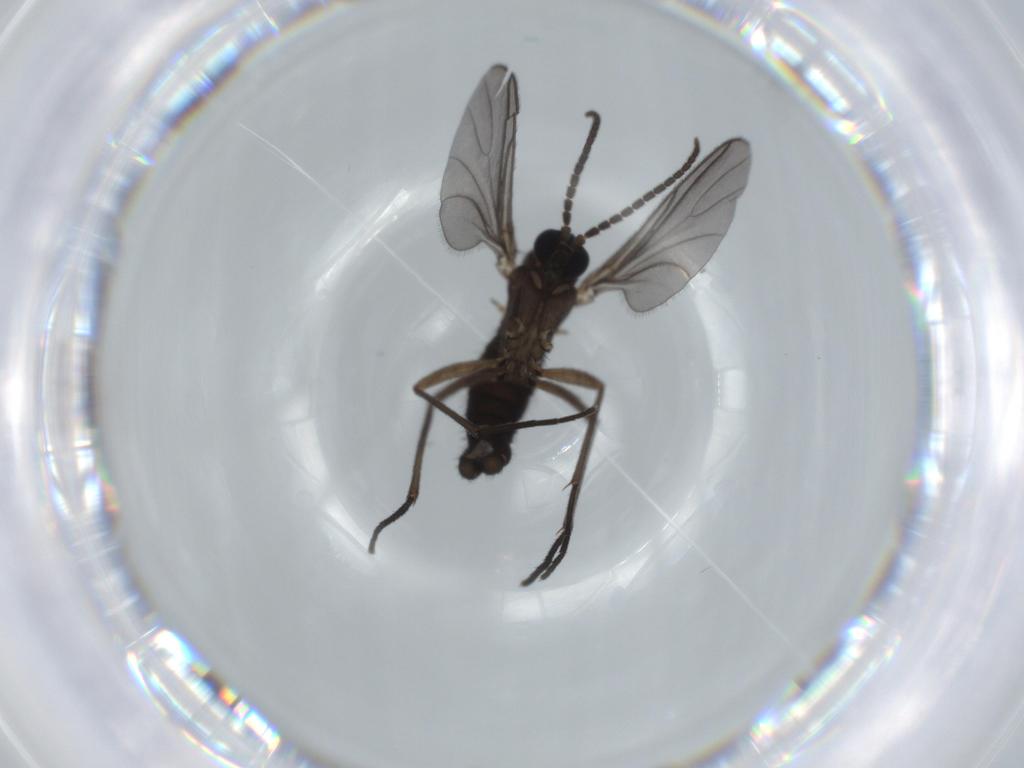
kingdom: Animalia
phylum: Arthropoda
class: Insecta
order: Diptera
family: Sciaridae
